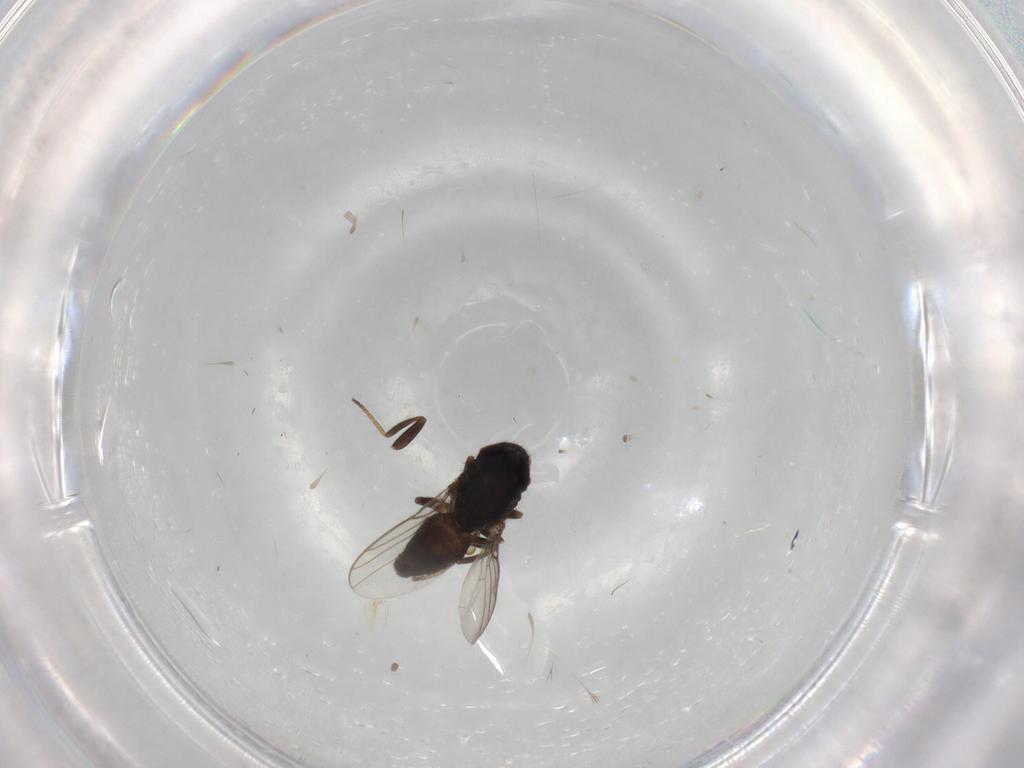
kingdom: Animalia
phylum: Arthropoda
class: Insecta
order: Diptera
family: Chloropidae
